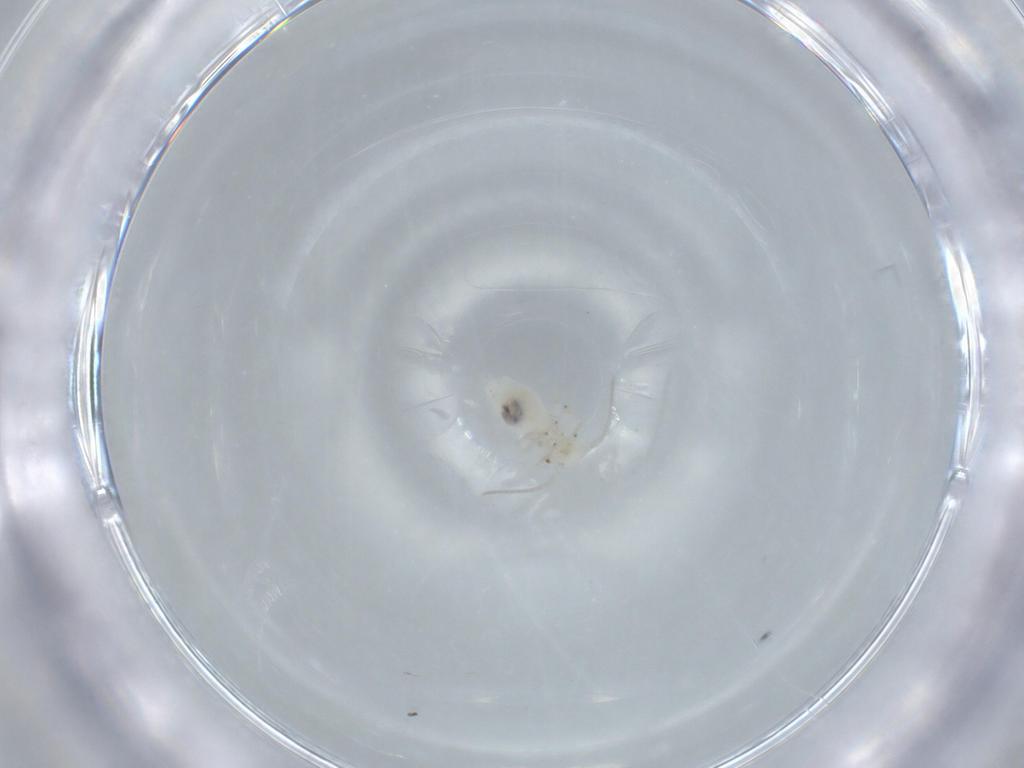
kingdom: Animalia
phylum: Arthropoda
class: Insecta
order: Psocodea
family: Caeciliusidae
